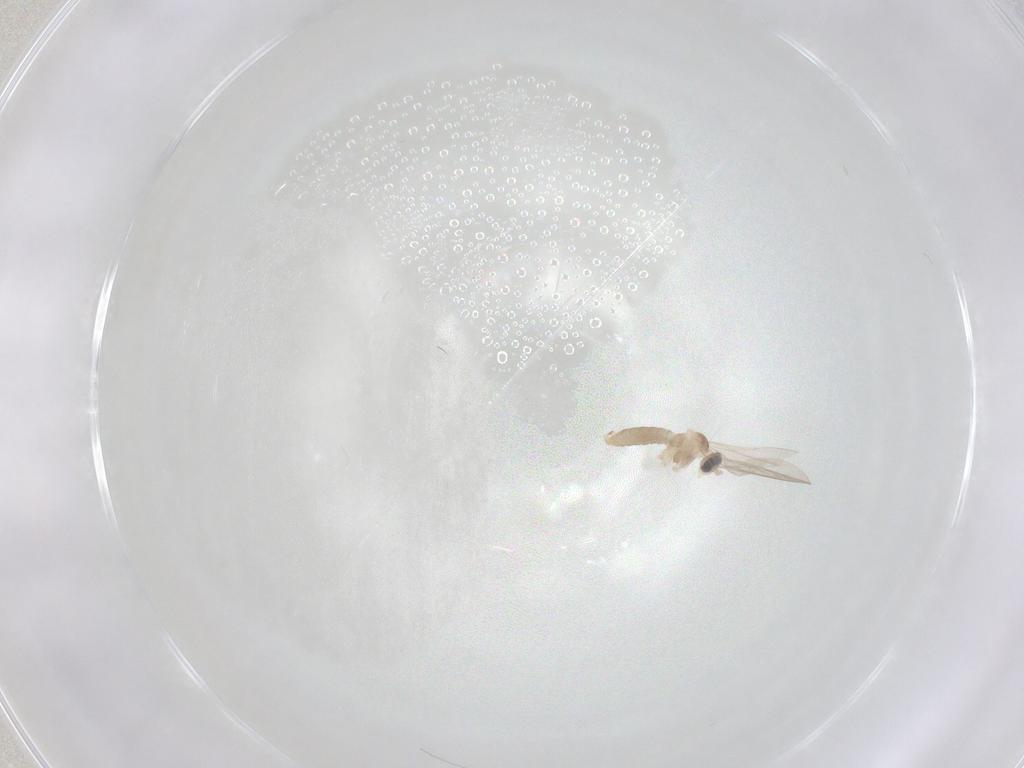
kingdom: Animalia
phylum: Arthropoda
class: Insecta
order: Diptera
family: Cecidomyiidae
